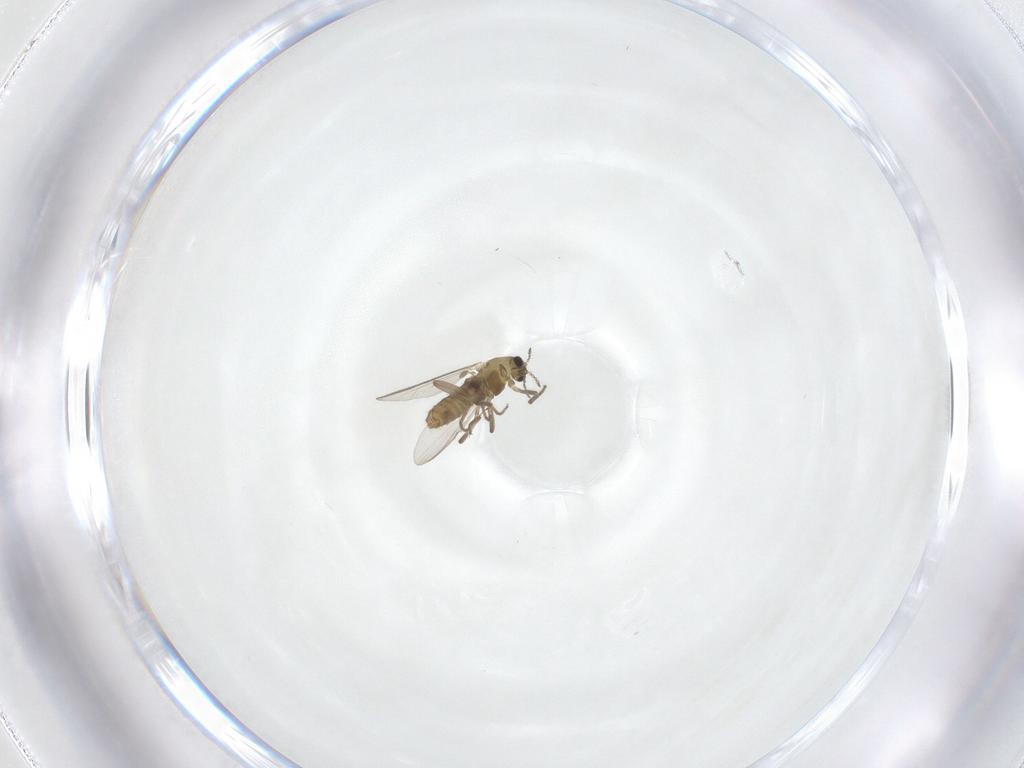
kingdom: Animalia
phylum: Arthropoda
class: Insecta
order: Diptera
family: Chironomidae
